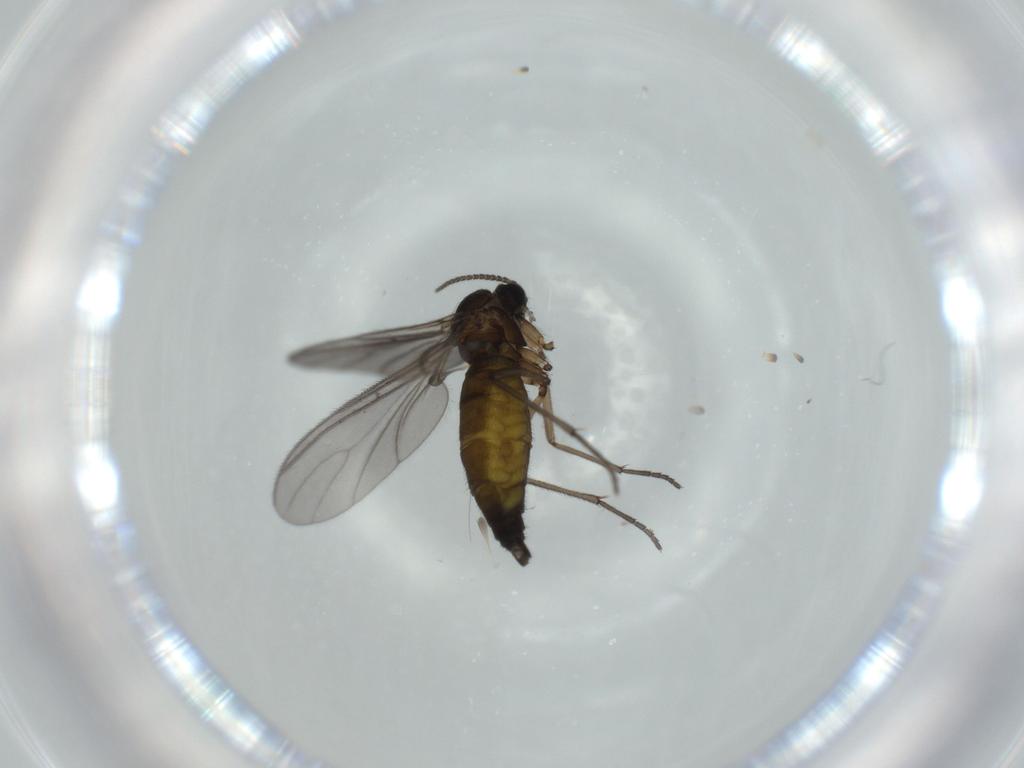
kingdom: Animalia
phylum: Arthropoda
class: Insecta
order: Diptera
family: Sciaridae
